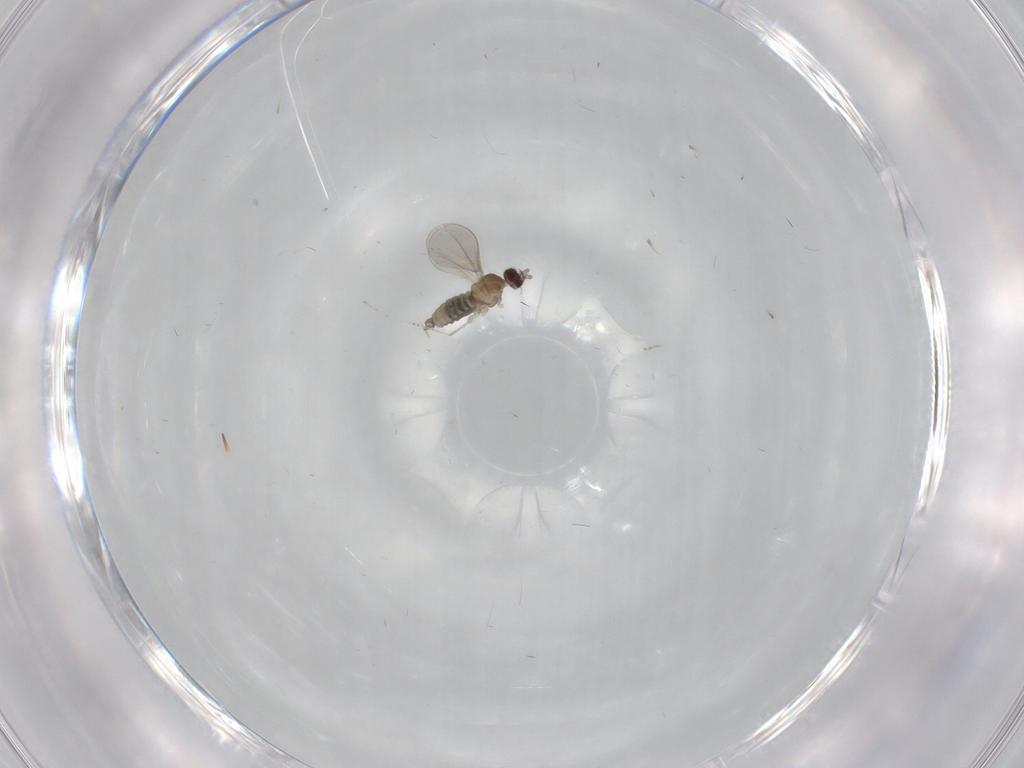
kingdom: Animalia
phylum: Arthropoda
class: Insecta
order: Diptera
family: Cecidomyiidae
